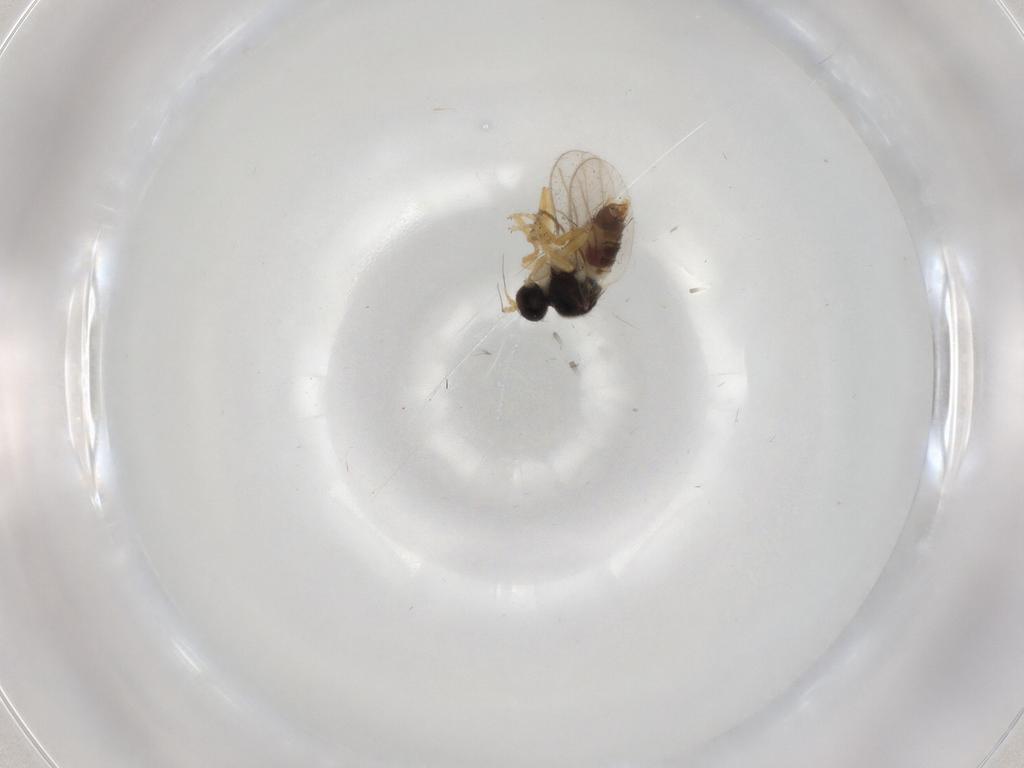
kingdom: Animalia
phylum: Arthropoda
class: Insecta
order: Diptera
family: Hybotidae
